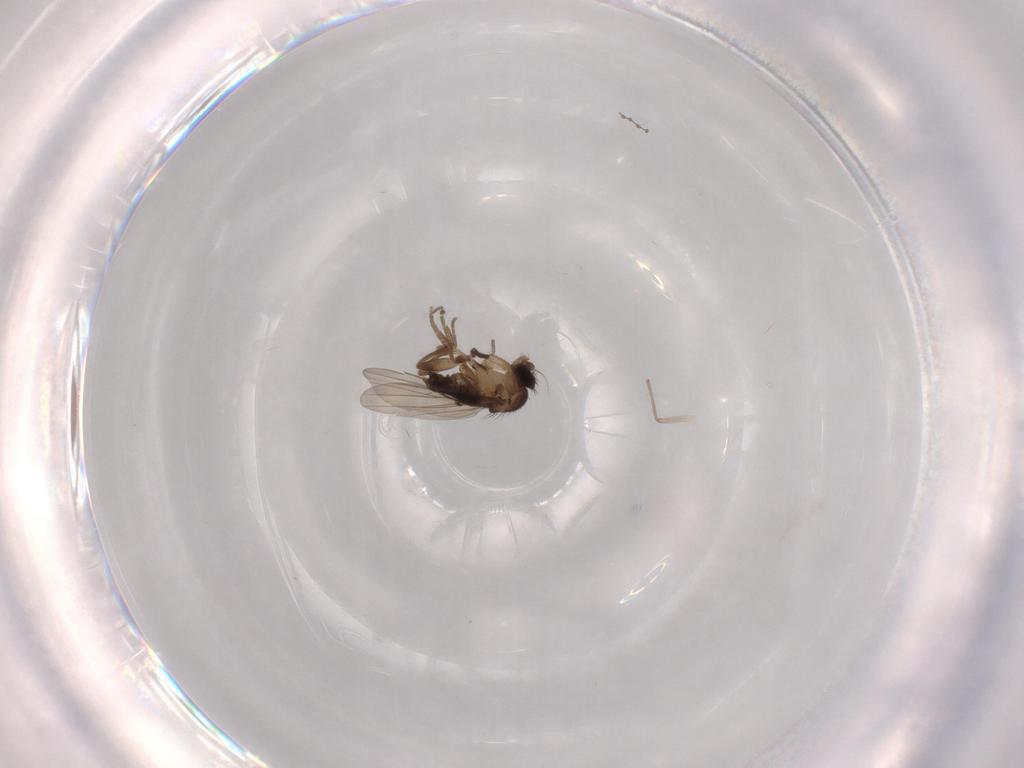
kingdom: Animalia
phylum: Arthropoda
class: Insecta
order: Diptera
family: Phoridae
